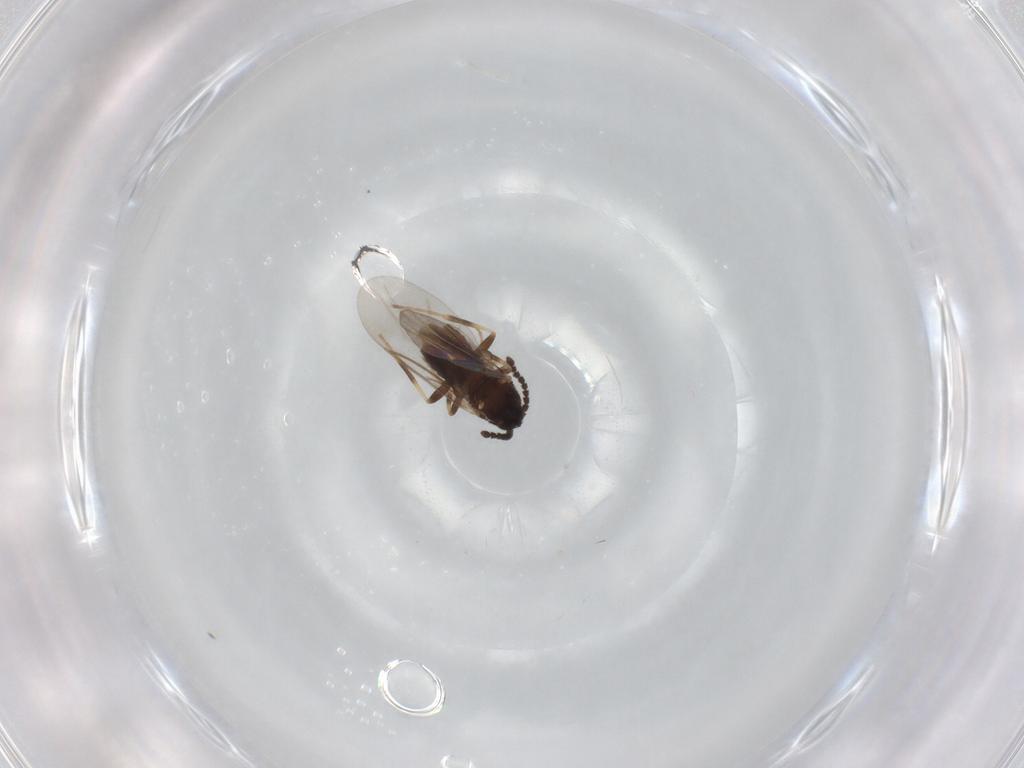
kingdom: Animalia
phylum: Arthropoda
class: Insecta
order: Diptera
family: Scatopsidae
